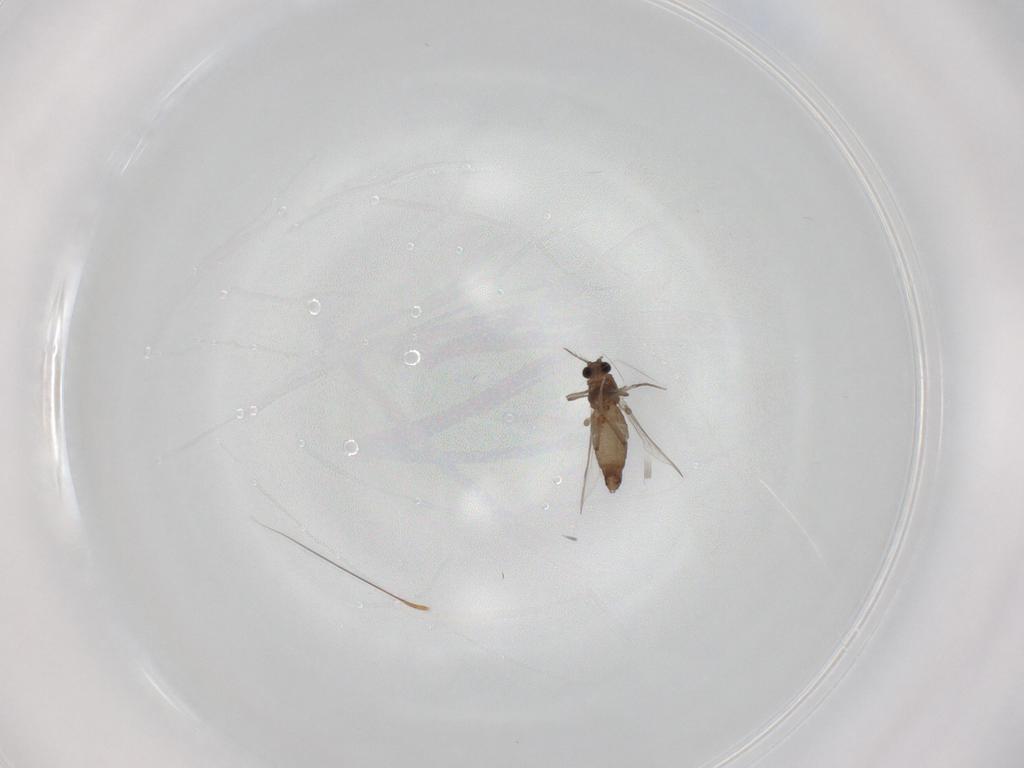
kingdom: Animalia
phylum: Arthropoda
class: Insecta
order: Diptera
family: Chironomidae
